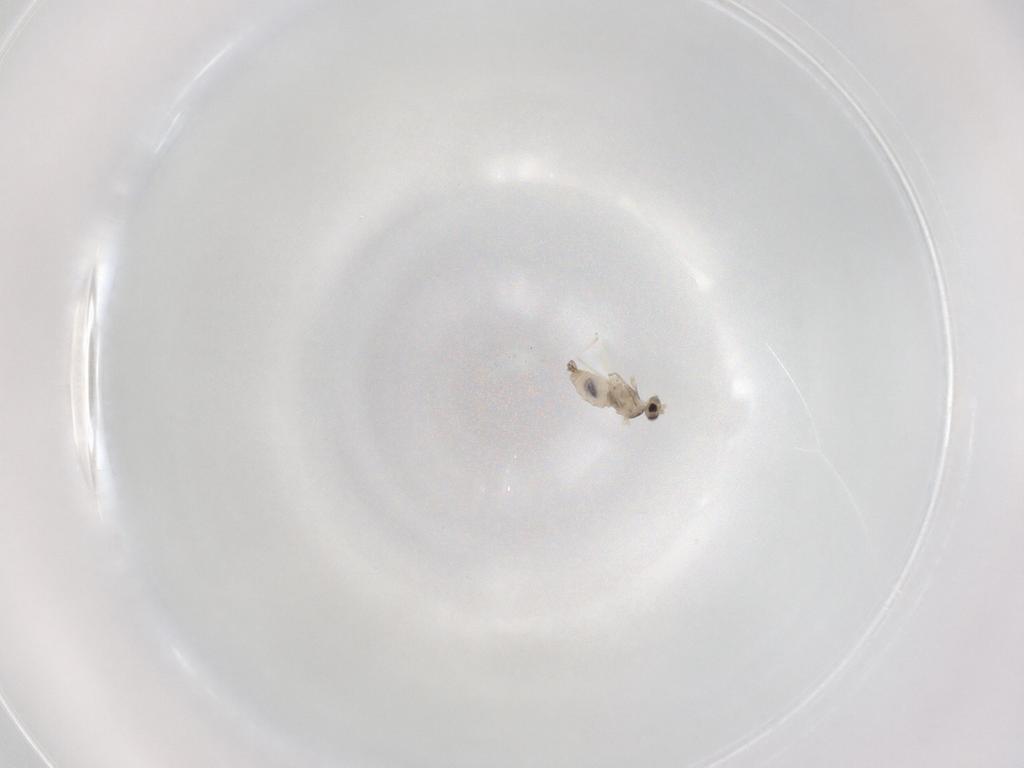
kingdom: Animalia
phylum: Arthropoda
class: Insecta
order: Diptera
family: Cecidomyiidae
